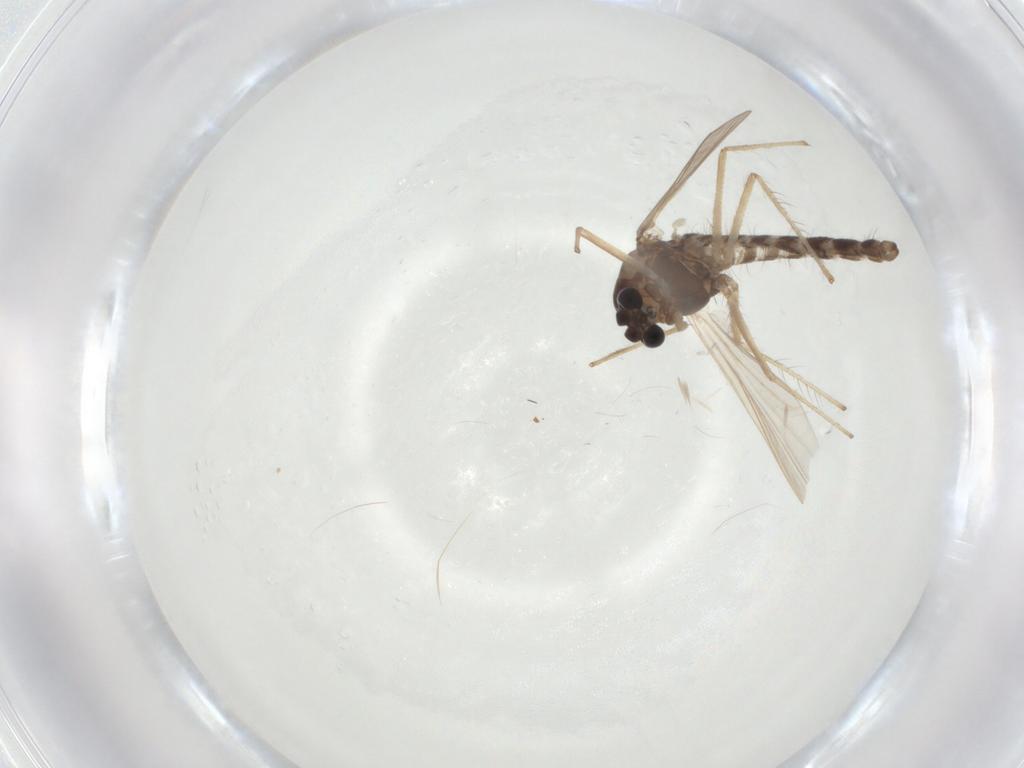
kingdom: Animalia
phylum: Arthropoda
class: Insecta
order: Diptera
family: Chironomidae
